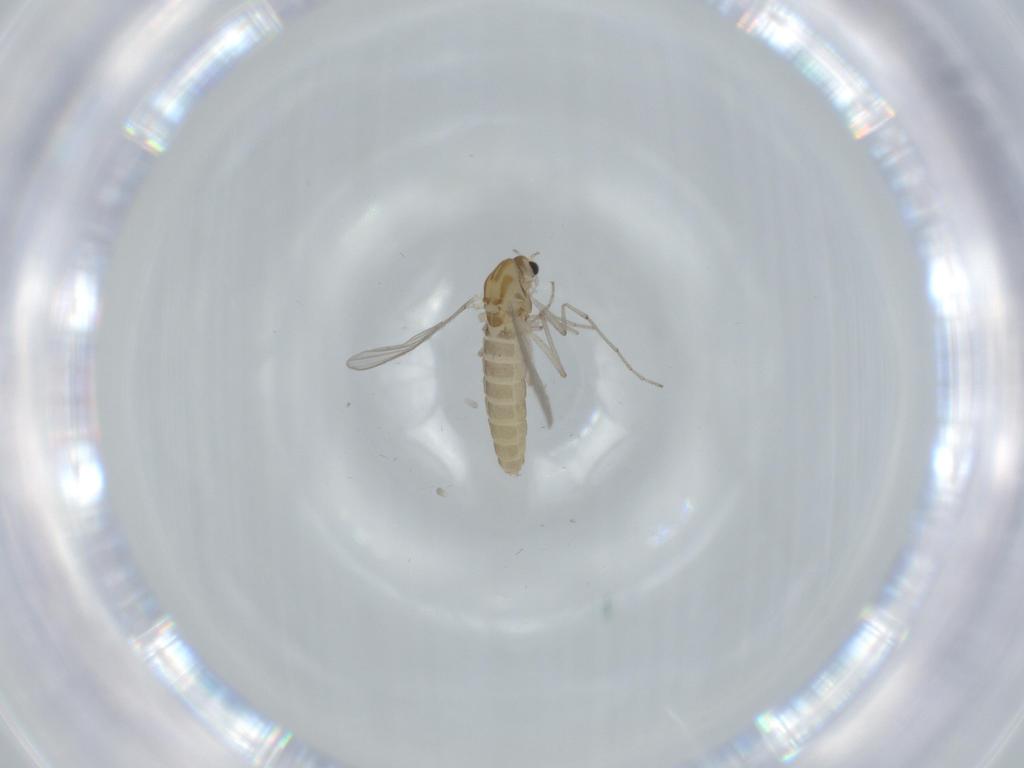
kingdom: Animalia
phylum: Arthropoda
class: Insecta
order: Diptera
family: Chironomidae
